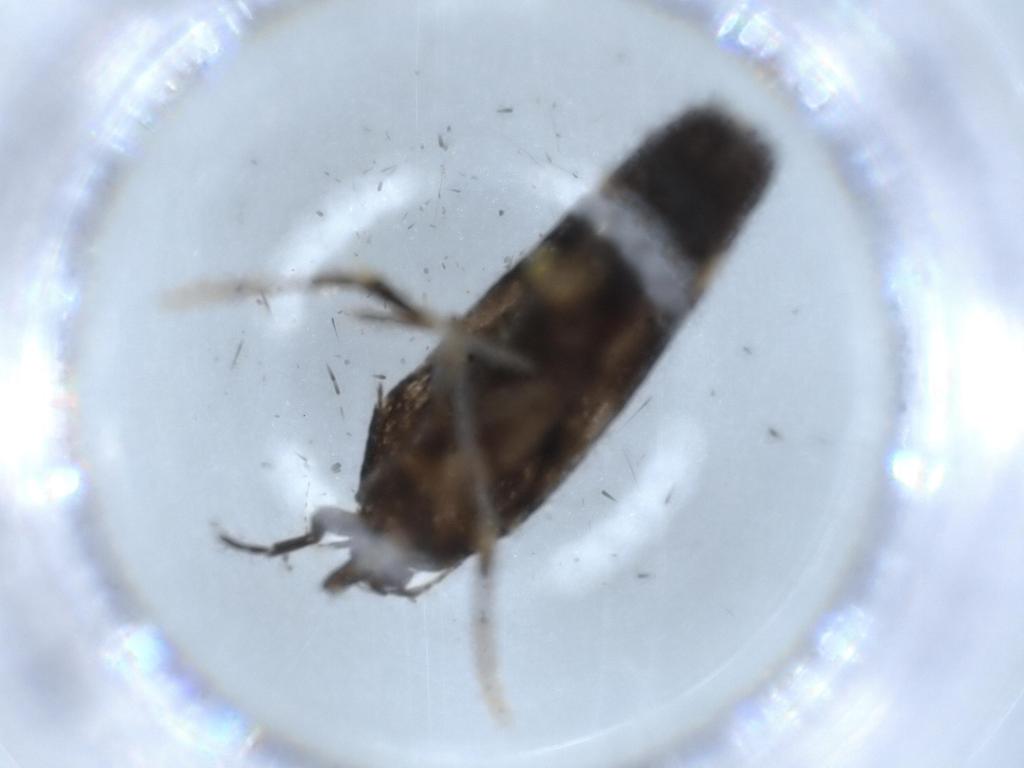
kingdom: Animalia
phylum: Arthropoda
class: Insecta
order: Lepidoptera
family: Cosmopterigidae
